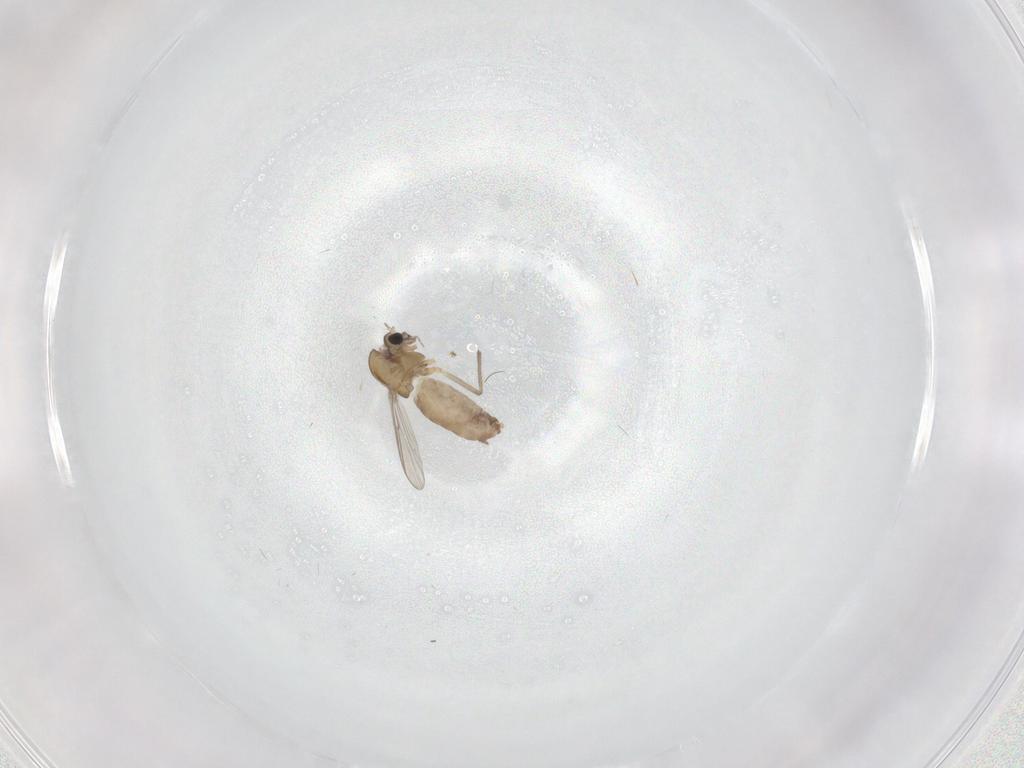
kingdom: Animalia
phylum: Arthropoda
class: Insecta
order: Diptera
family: Chironomidae
